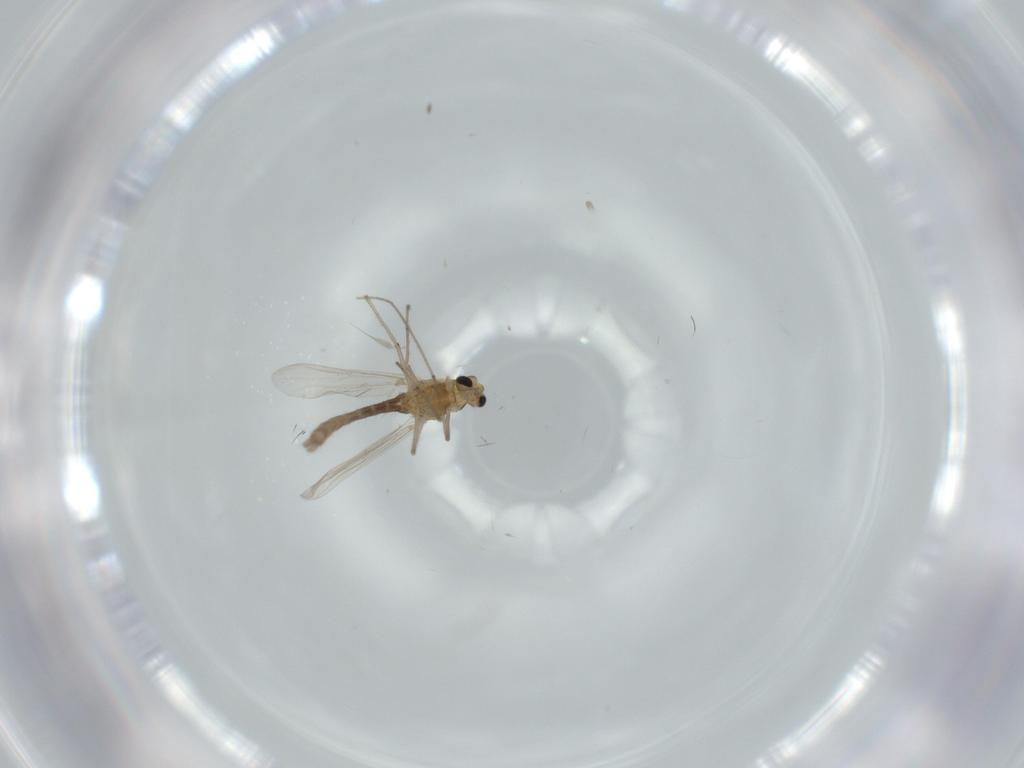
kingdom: Animalia
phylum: Arthropoda
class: Insecta
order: Diptera
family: Chironomidae
